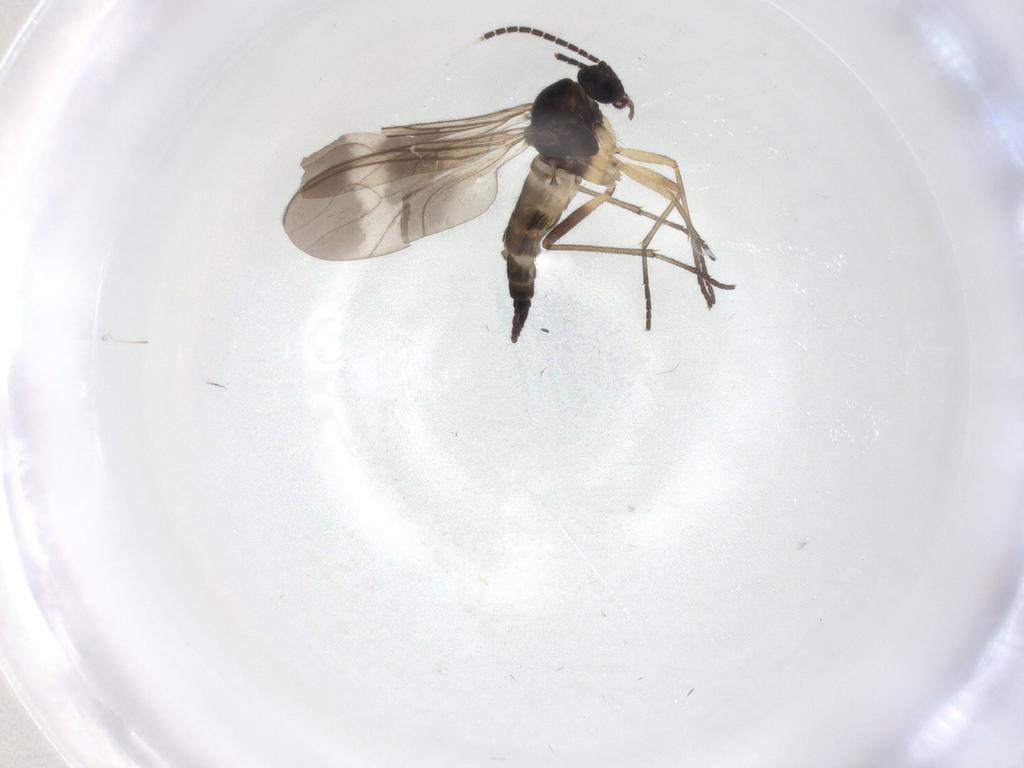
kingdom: Animalia
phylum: Arthropoda
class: Insecta
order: Diptera
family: Sciaridae
